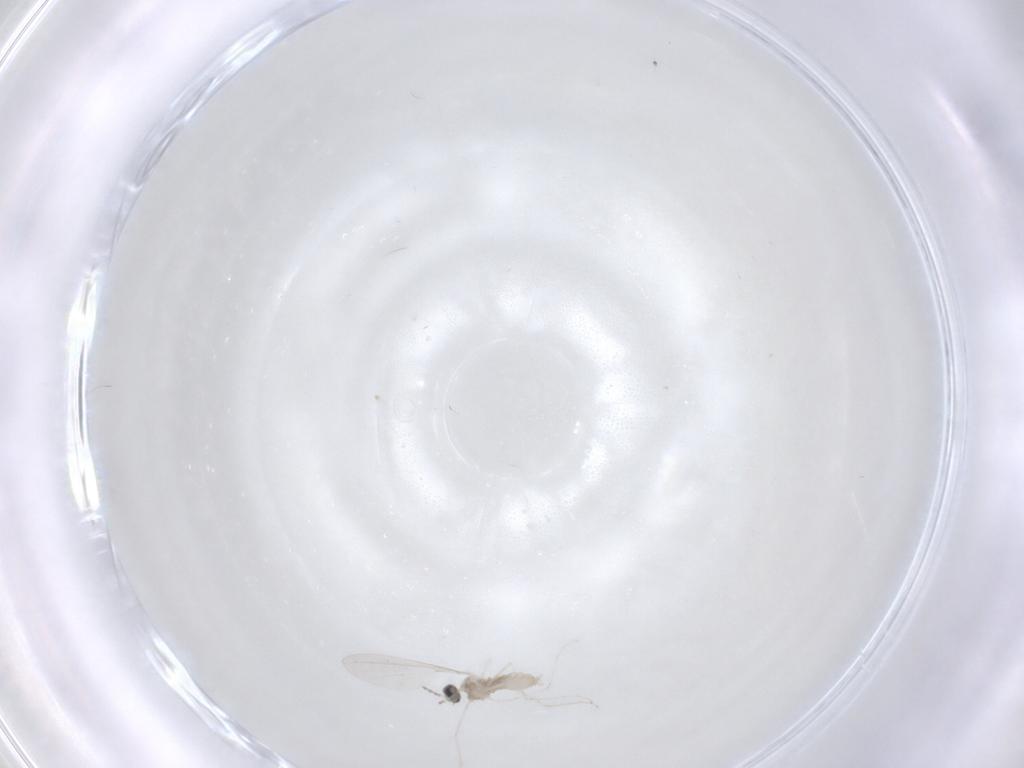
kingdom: Animalia
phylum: Arthropoda
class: Insecta
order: Diptera
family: Cecidomyiidae
